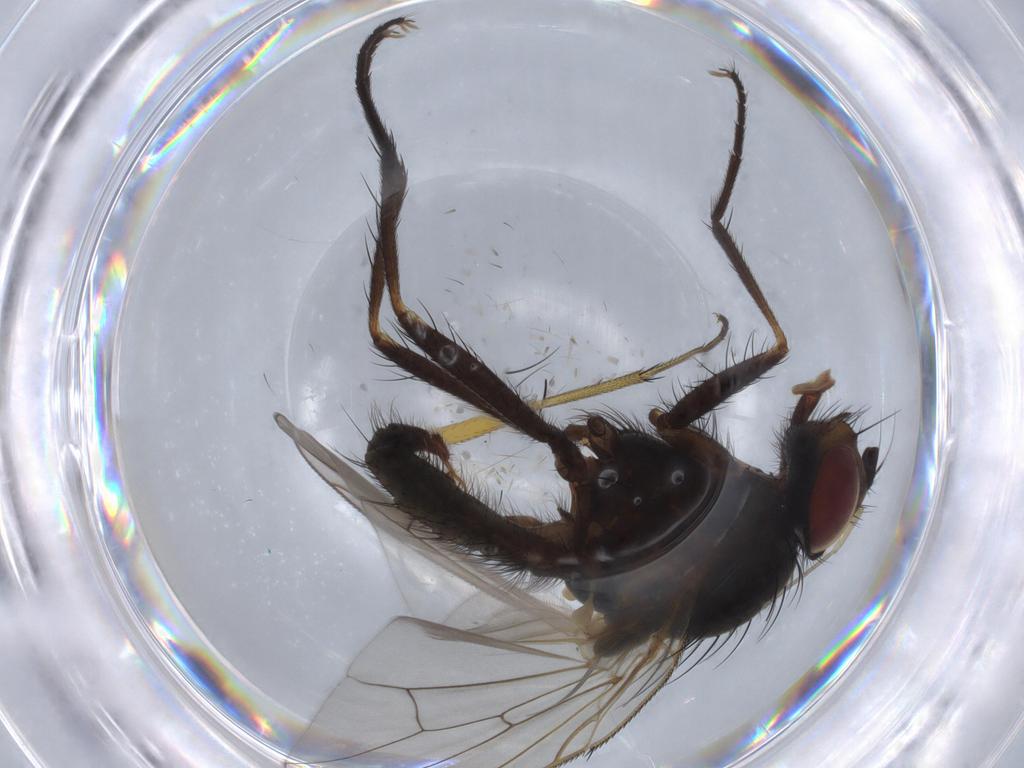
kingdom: Animalia
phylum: Arthropoda
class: Insecta
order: Diptera
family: Anthomyiidae
